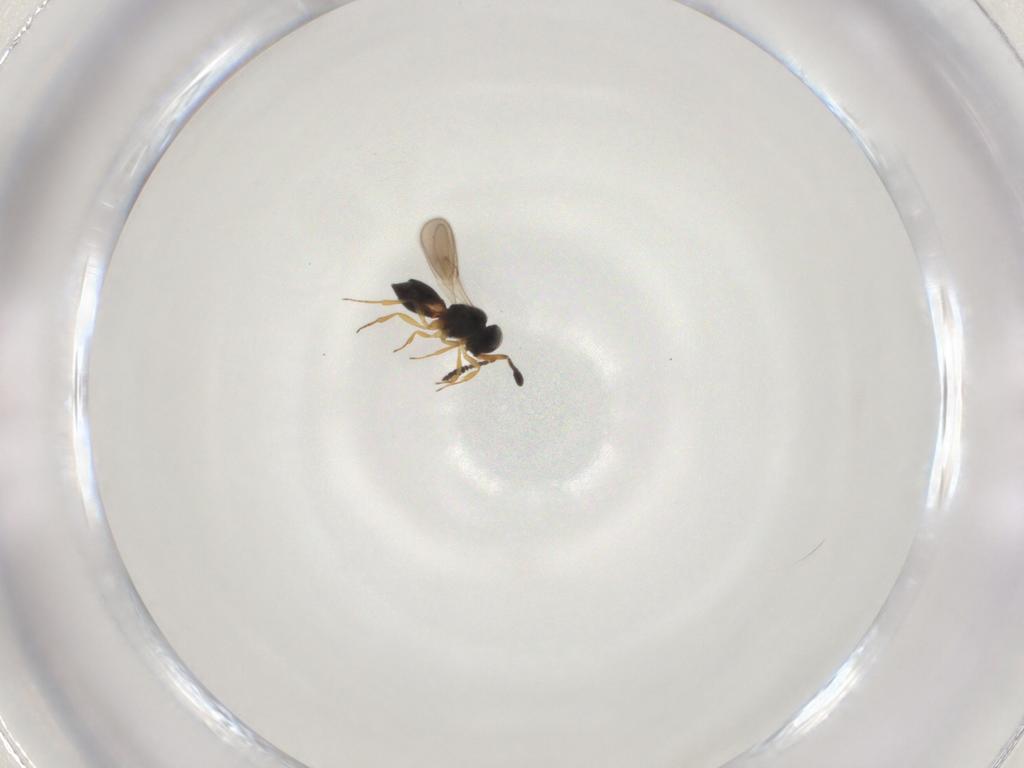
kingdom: Animalia
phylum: Arthropoda
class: Insecta
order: Hymenoptera
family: Scelionidae
